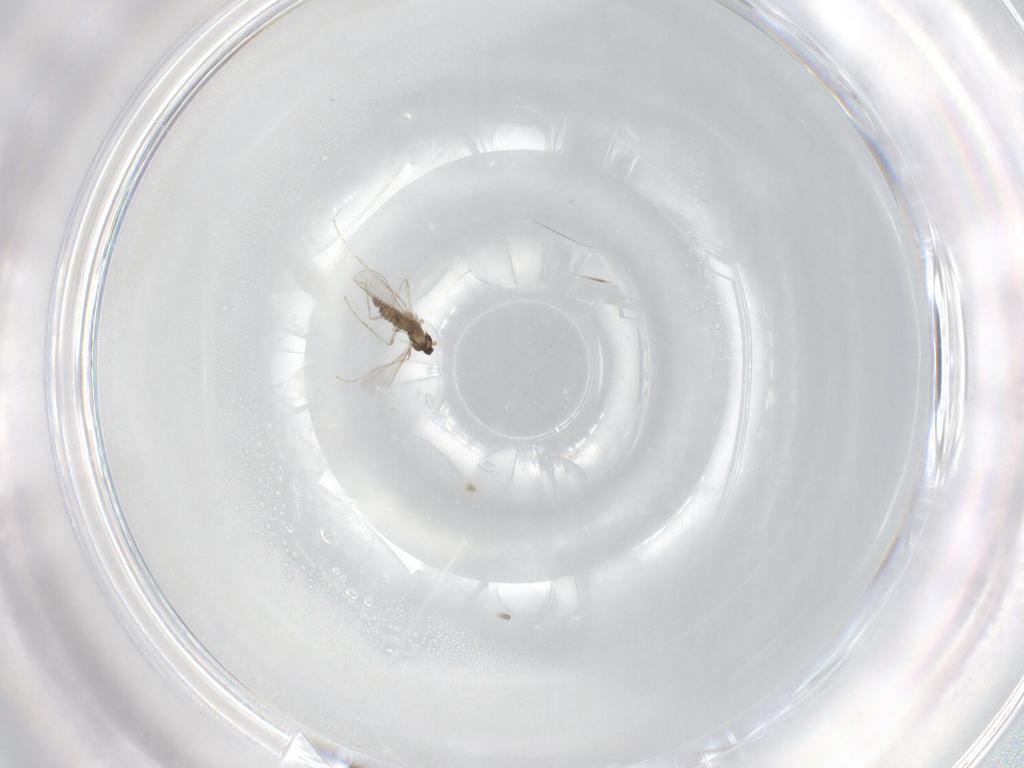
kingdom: Animalia
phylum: Arthropoda
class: Insecta
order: Diptera
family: Cecidomyiidae
